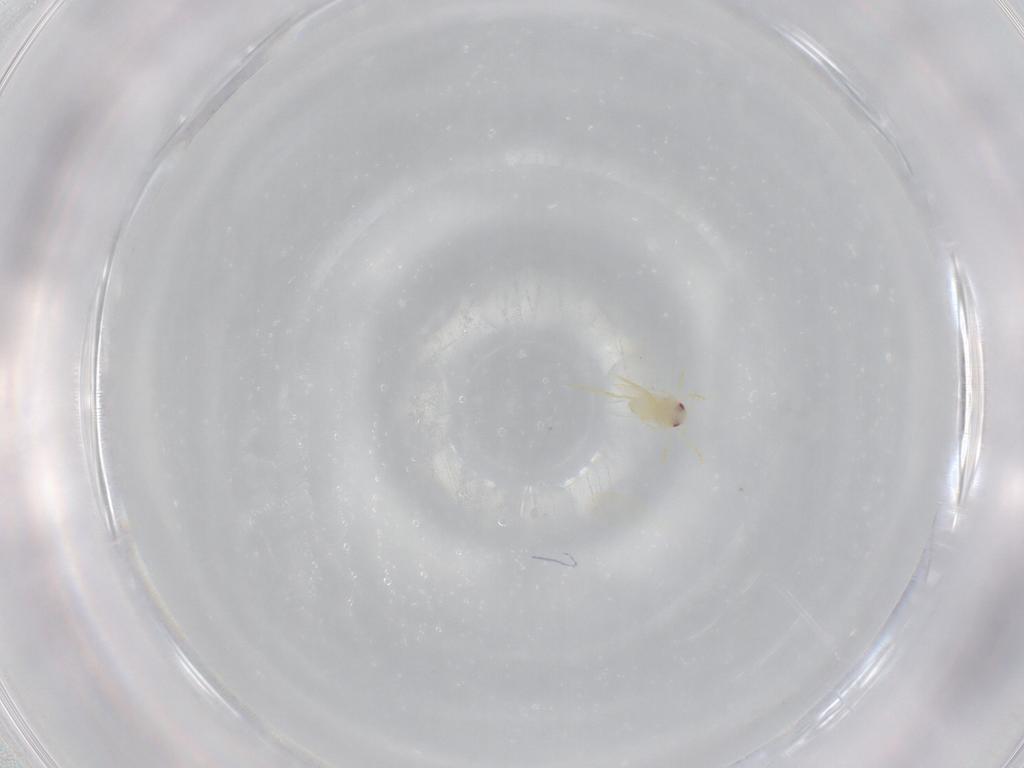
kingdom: Animalia
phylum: Arthropoda
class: Insecta
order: Hemiptera
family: Aleyrodidae
